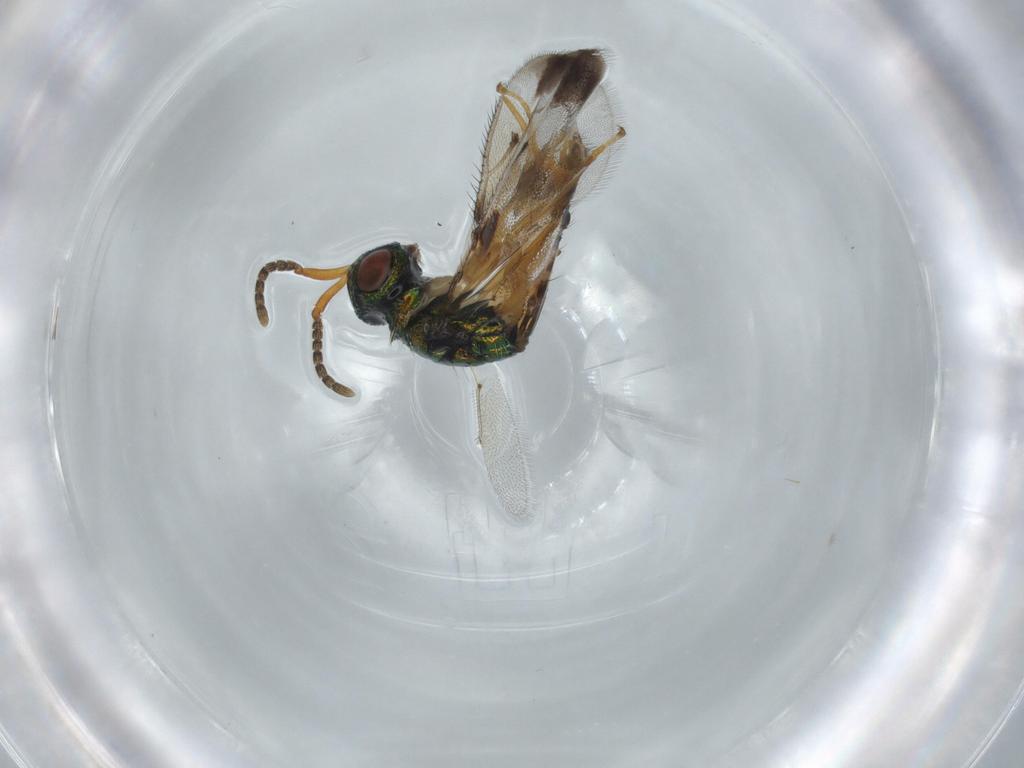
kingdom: Animalia
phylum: Arthropoda
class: Insecta
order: Hymenoptera
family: Pteromalidae
